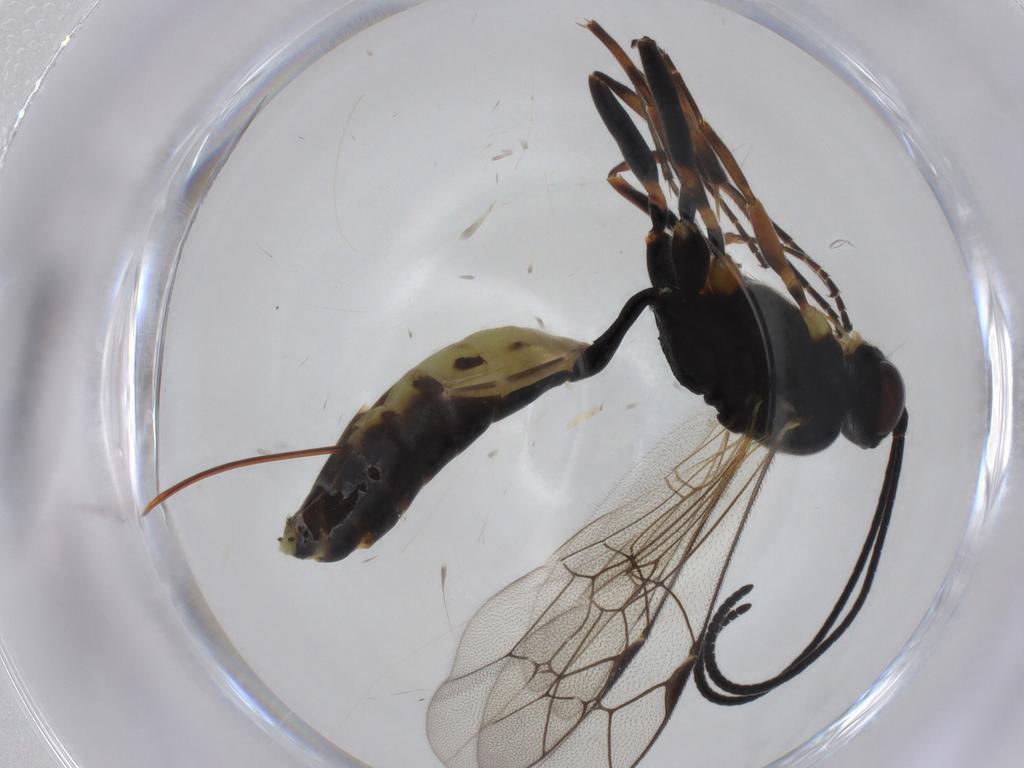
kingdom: Animalia
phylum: Arthropoda
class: Insecta
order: Hymenoptera
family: Ichneumonidae
